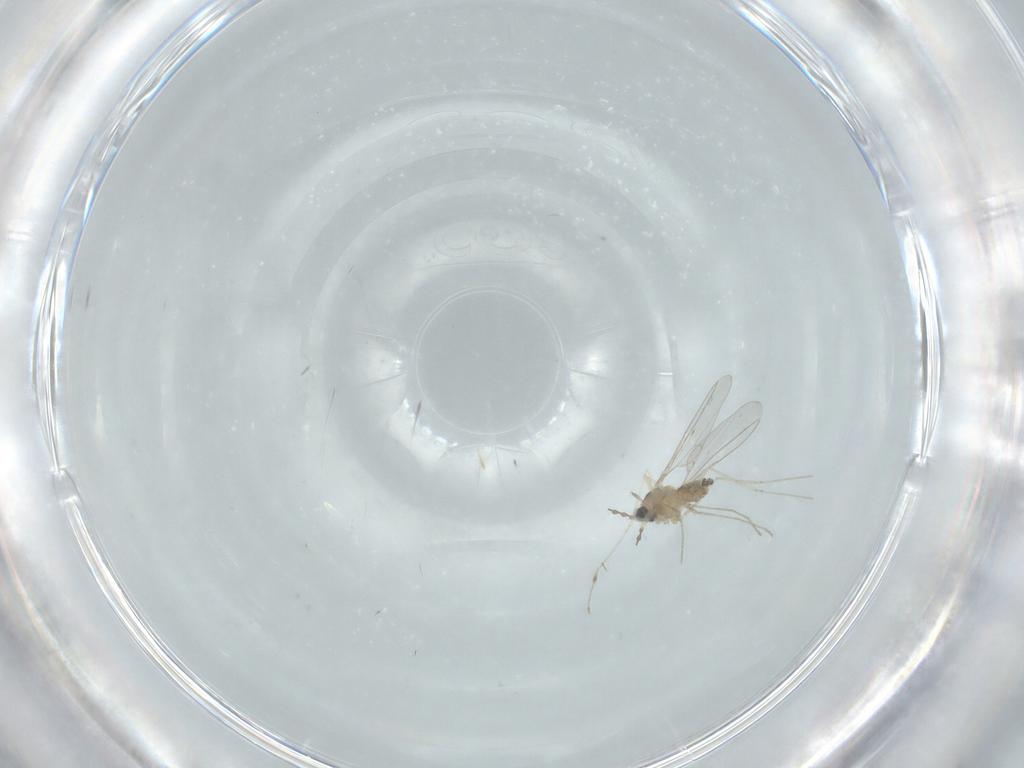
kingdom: Animalia
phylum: Arthropoda
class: Insecta
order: Diptera
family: Cecidomyiidae
